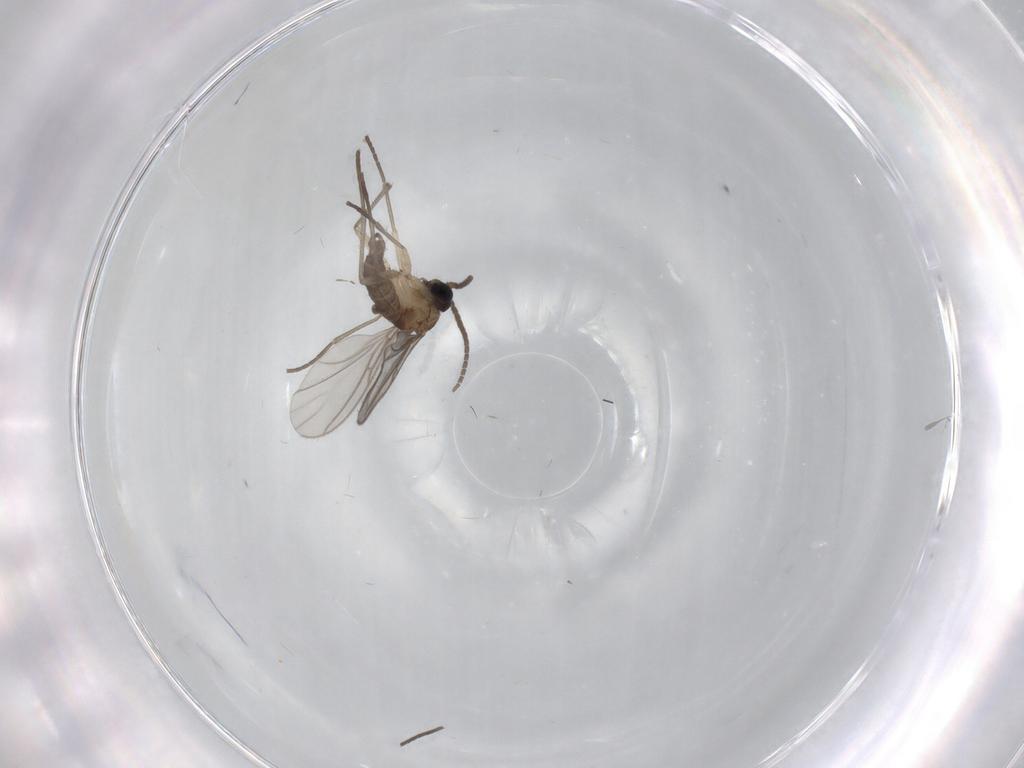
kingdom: Animalia
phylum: Arthropoda
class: Insecta
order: Diptera
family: Sciaridae
